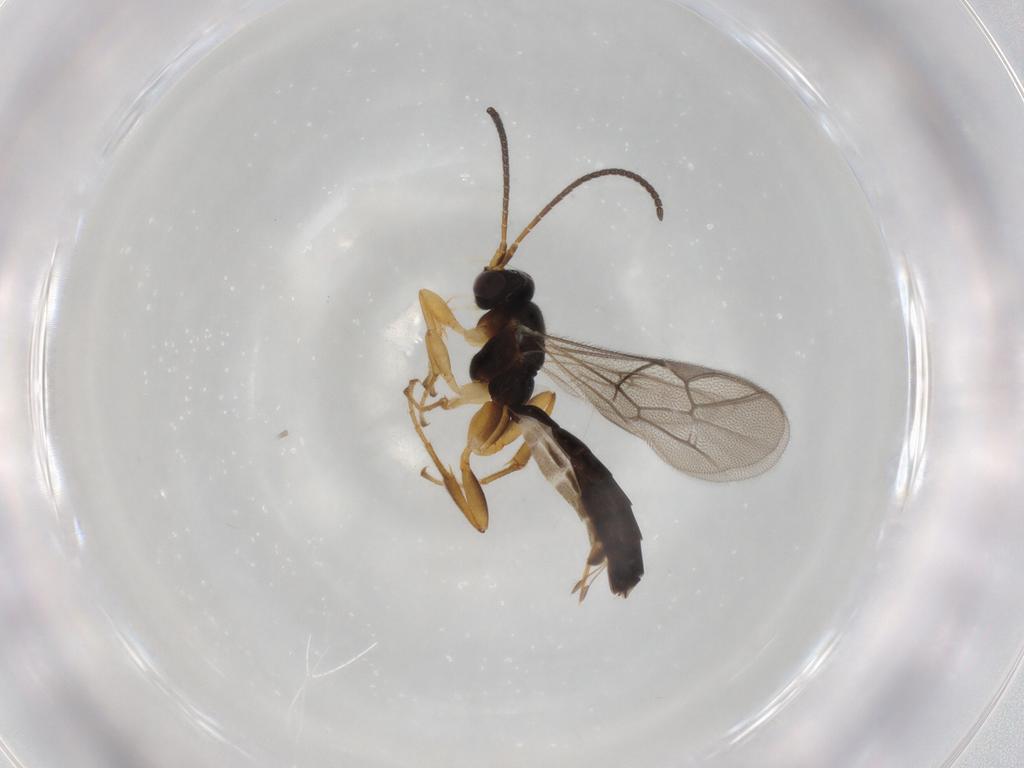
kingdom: Animalia
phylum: Arthropoda
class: Insecta
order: Hymenoptera
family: Ichneumonidae
